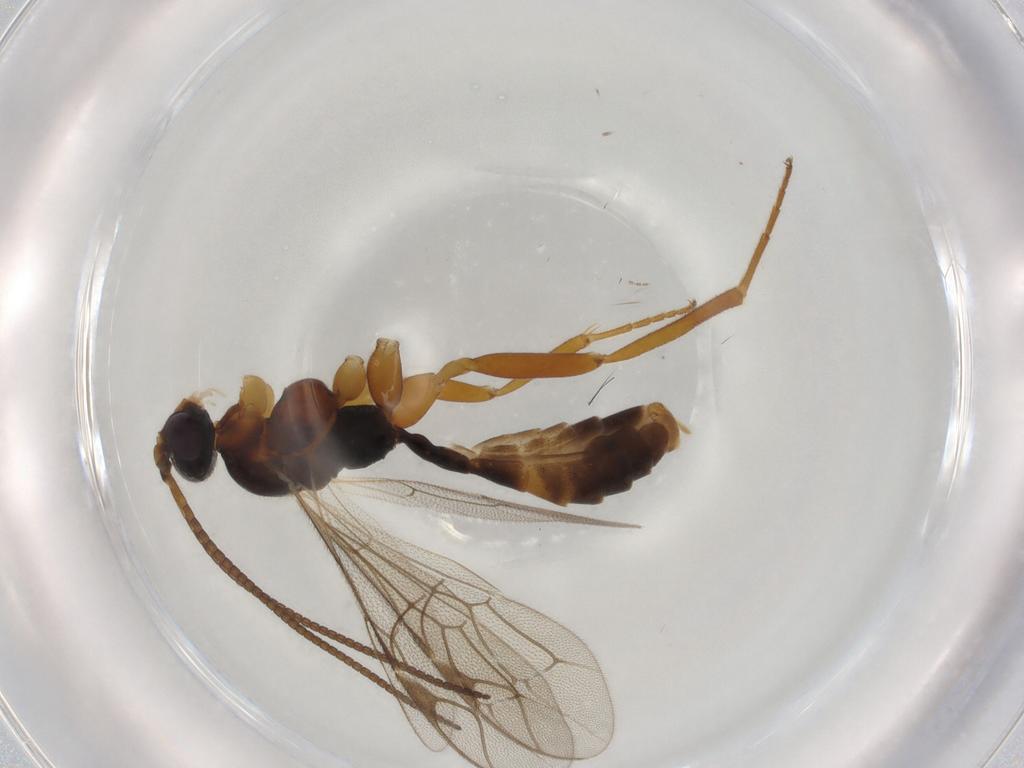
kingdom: Animalia
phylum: Arthropoda
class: Insecta
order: Hymenoptera
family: Ichneumonidae
